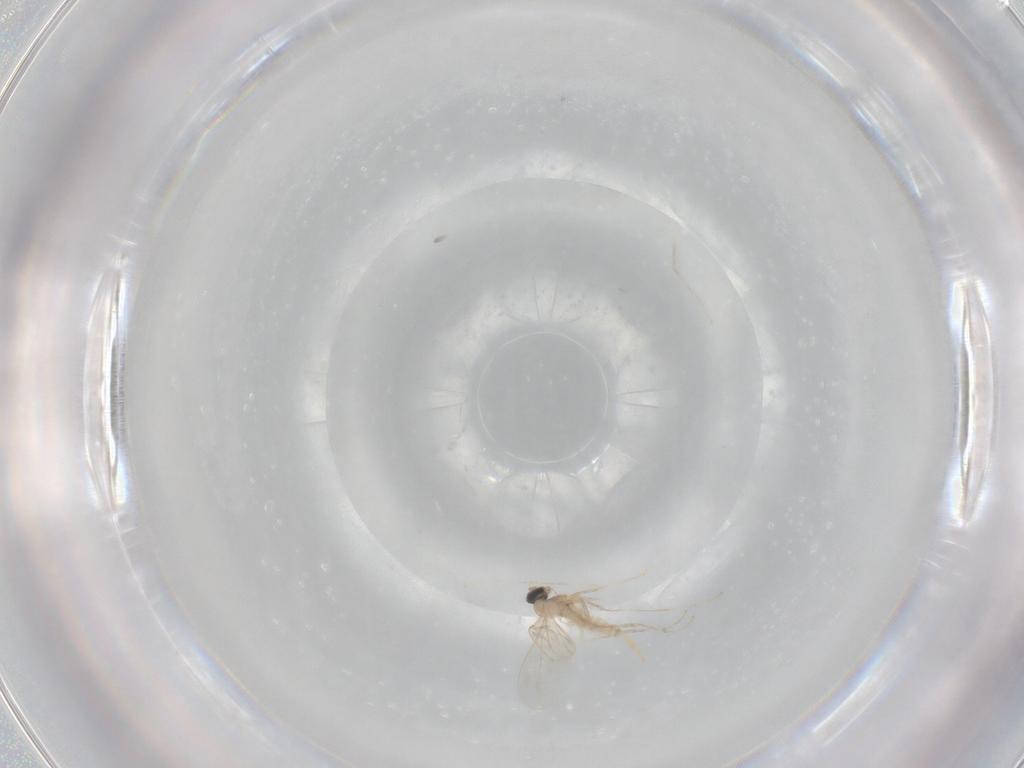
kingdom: Animalia
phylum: Arthropoda
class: Insecta
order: Diptera
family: Cecidomyiidae
